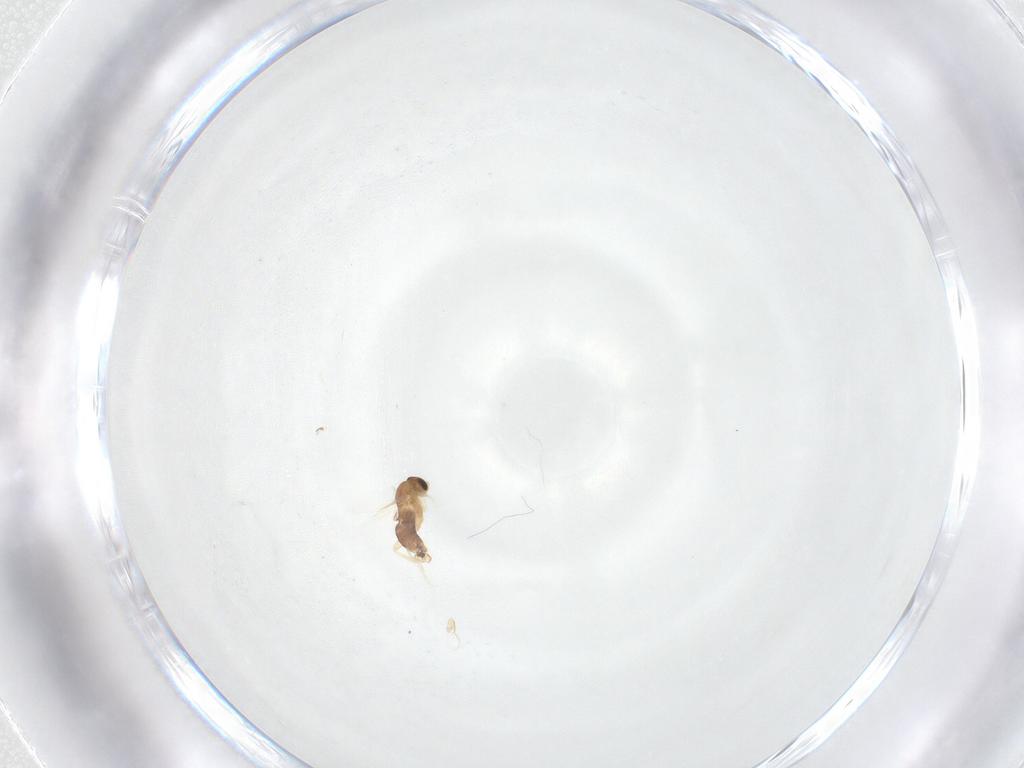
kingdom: Animalia
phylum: Arthropoda
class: Insecta
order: Diptera
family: Phoridae
